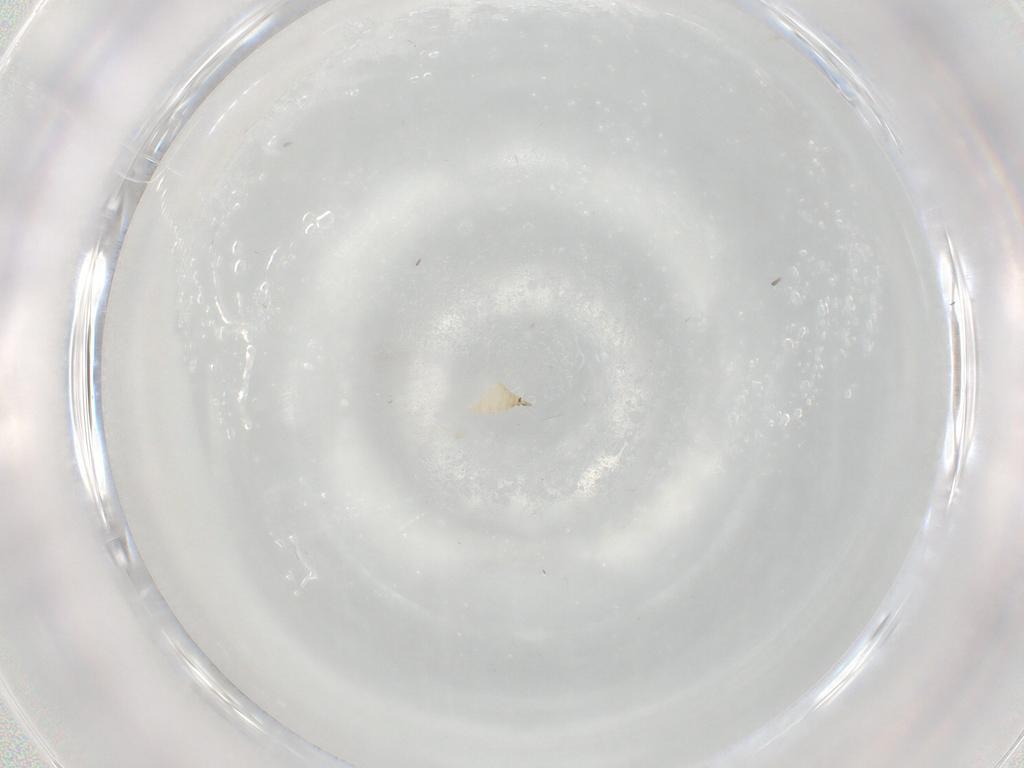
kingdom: Animalia
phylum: Arthropoda
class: Insecta
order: Diptera
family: Cecidomyiidae
